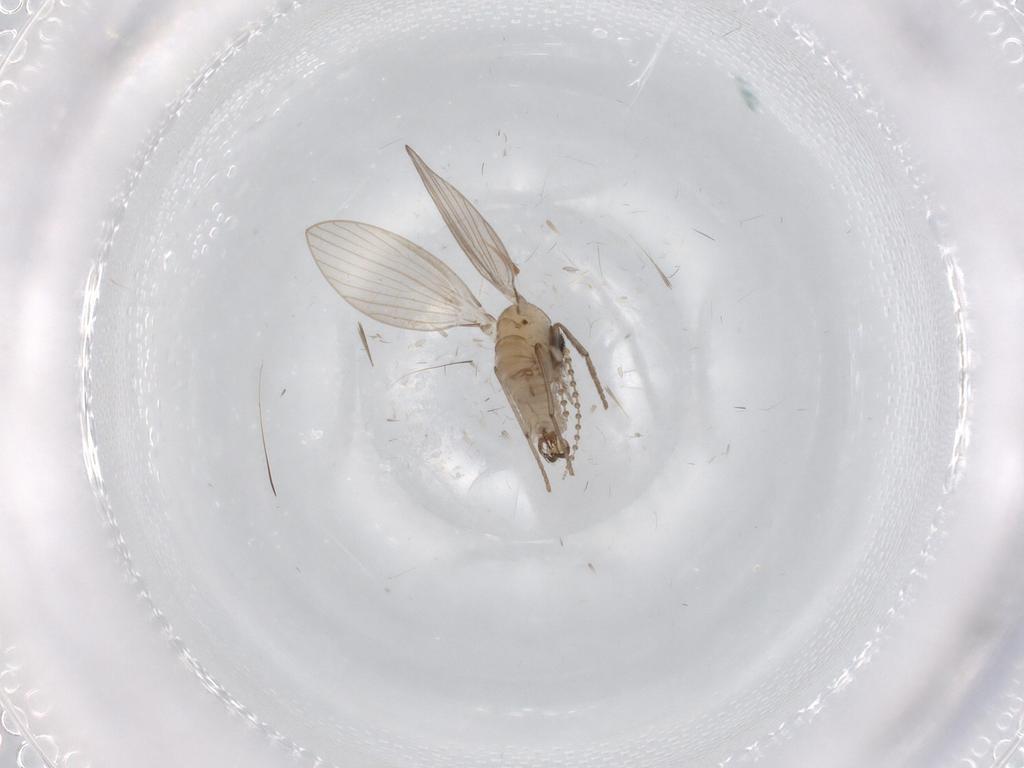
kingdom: Animalia
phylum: Arthropoda
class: Insecta
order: Diptera
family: Psychodidae
